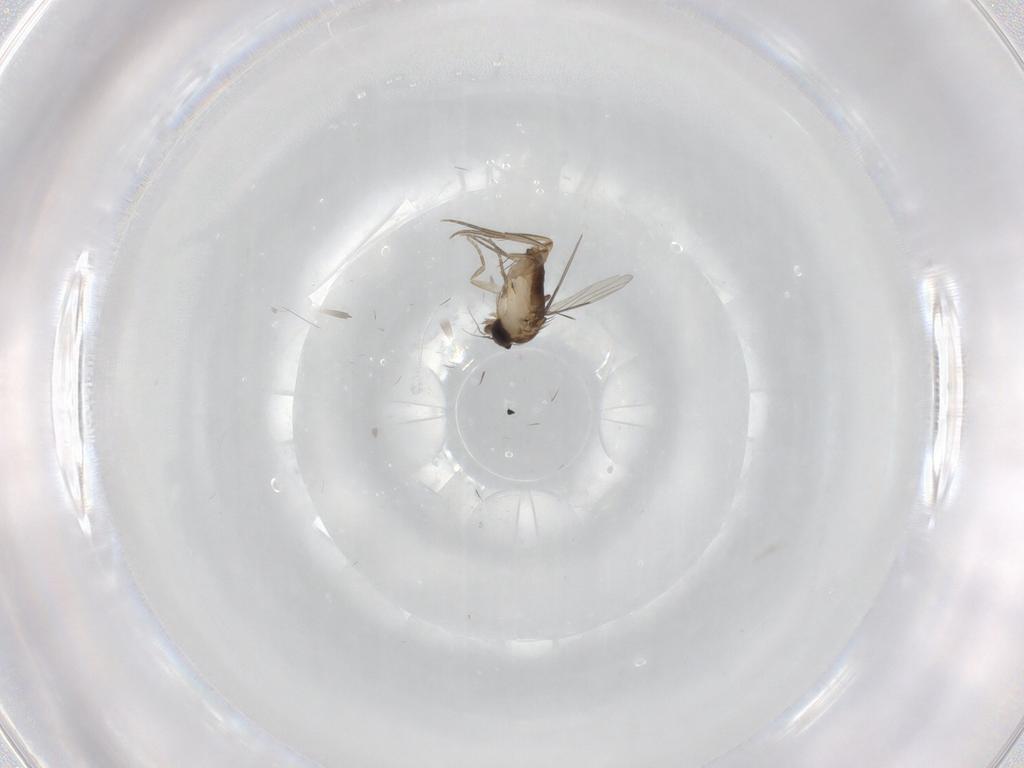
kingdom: Animalia
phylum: Arthropoda
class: Insecta
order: Diptera
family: Phoridae
